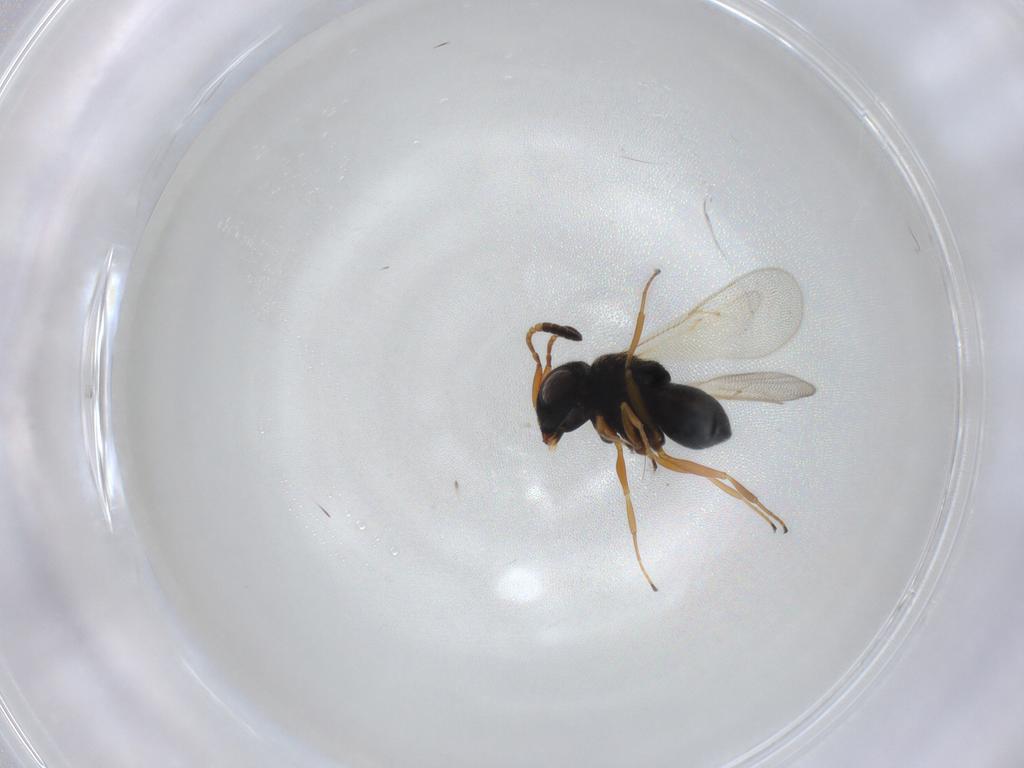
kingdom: Animalia
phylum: Arthropoda
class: Insecta
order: Hymenoptera
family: Scelionidae
